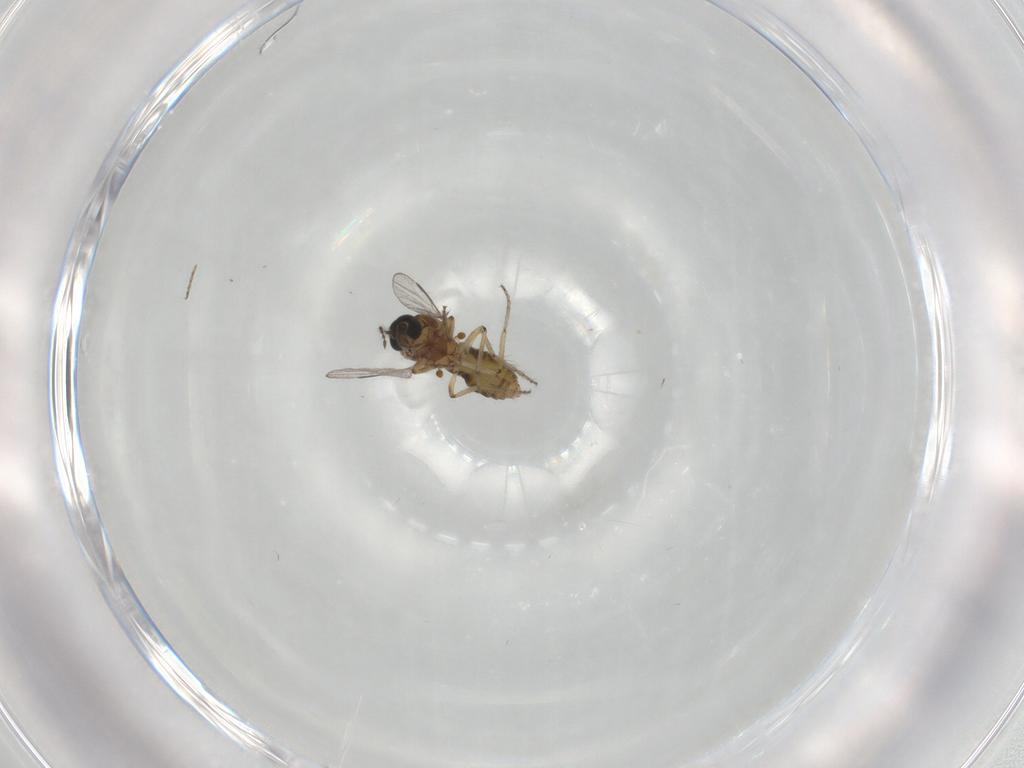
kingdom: Animalia
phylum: Arthropoda
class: Insecta
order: Diptera
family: Ceratopogonidae
